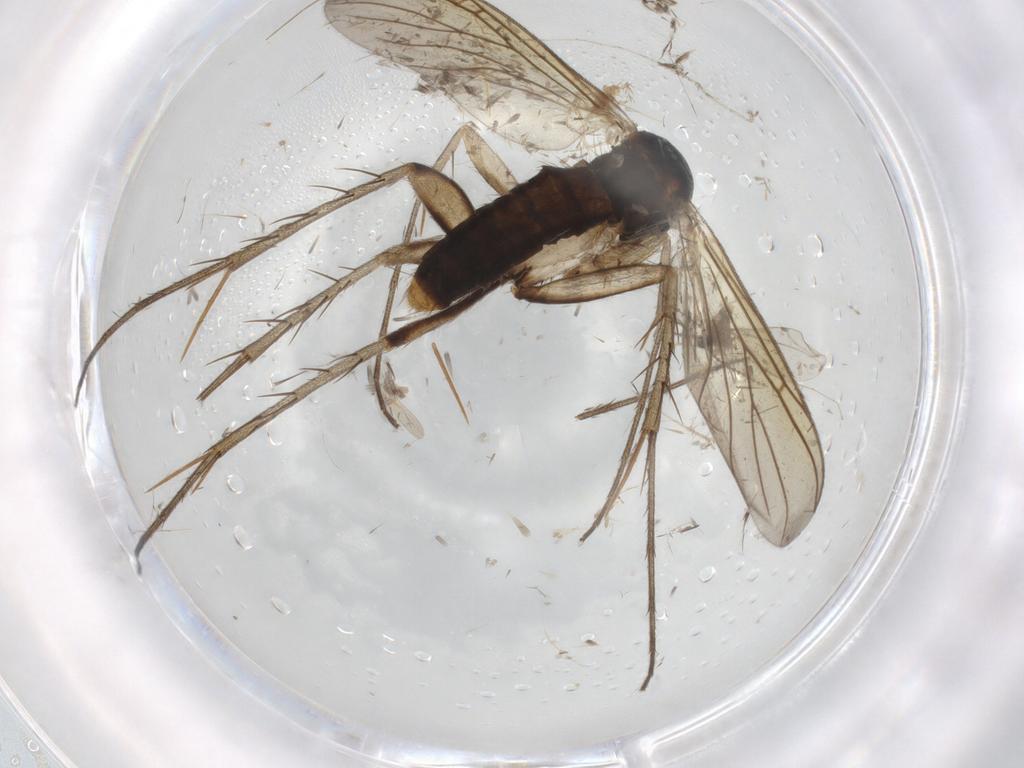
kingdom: Animalia
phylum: Arthropoda
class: Insecta
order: Diptera
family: Mycetophilidae
